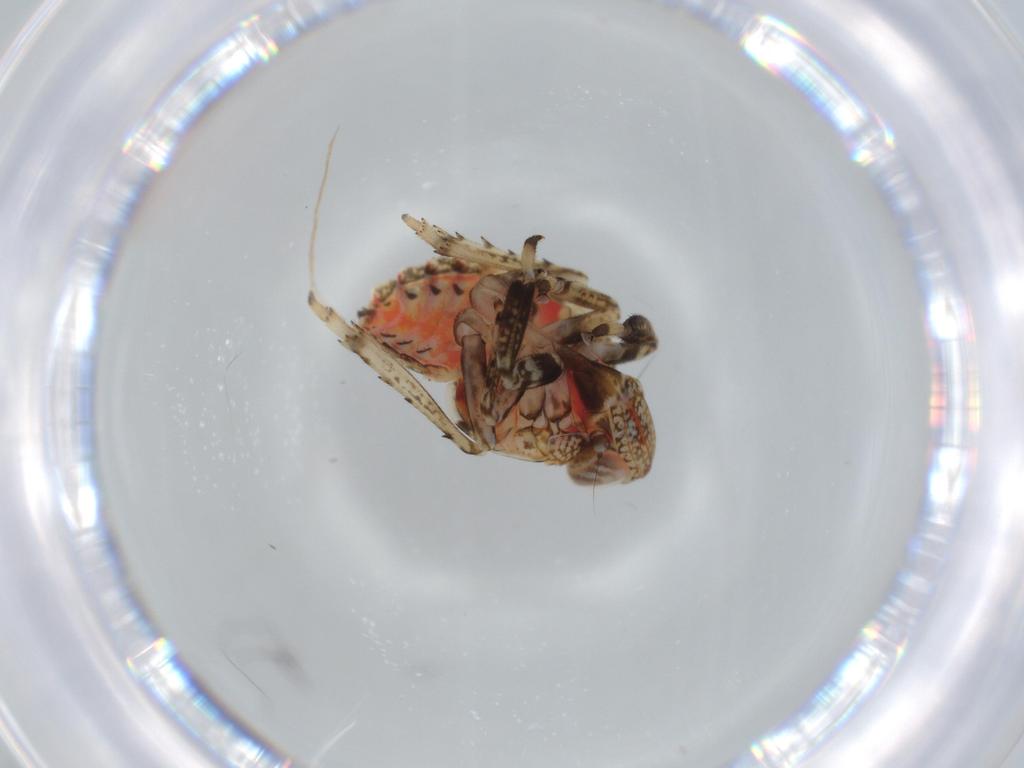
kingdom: Animalia
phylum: Arthropoda
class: Insecta
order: Hemiptera
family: Issidae
